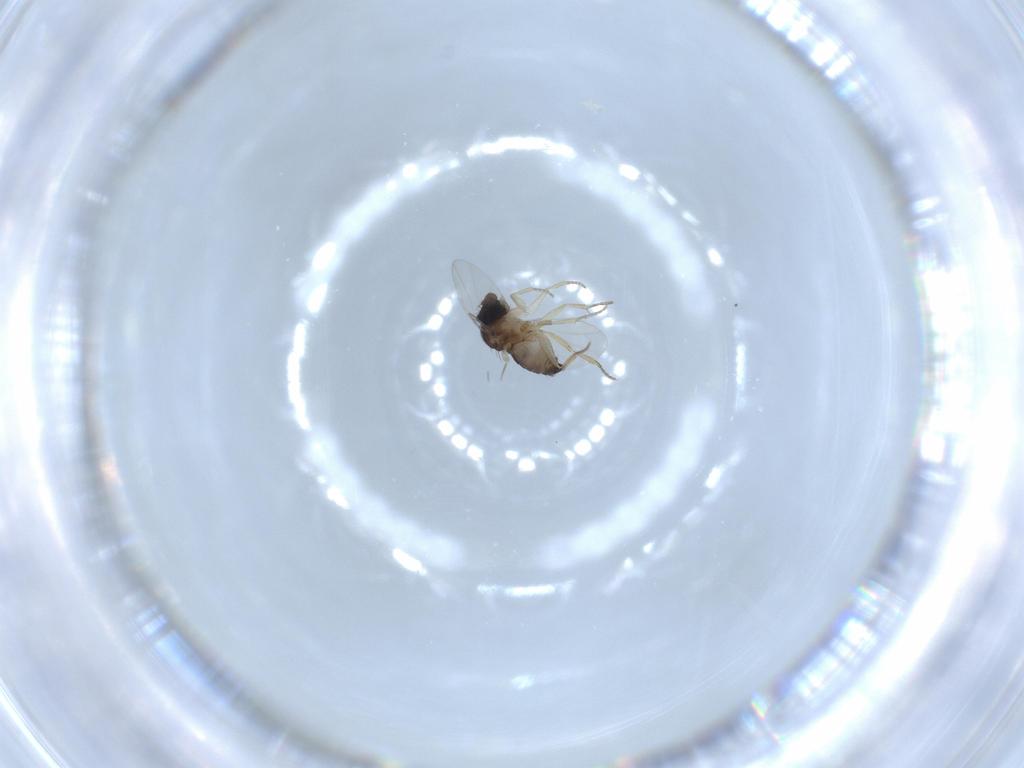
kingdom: Animalia
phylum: Arthropoda
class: Insecta
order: Diptera
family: Phoridae
